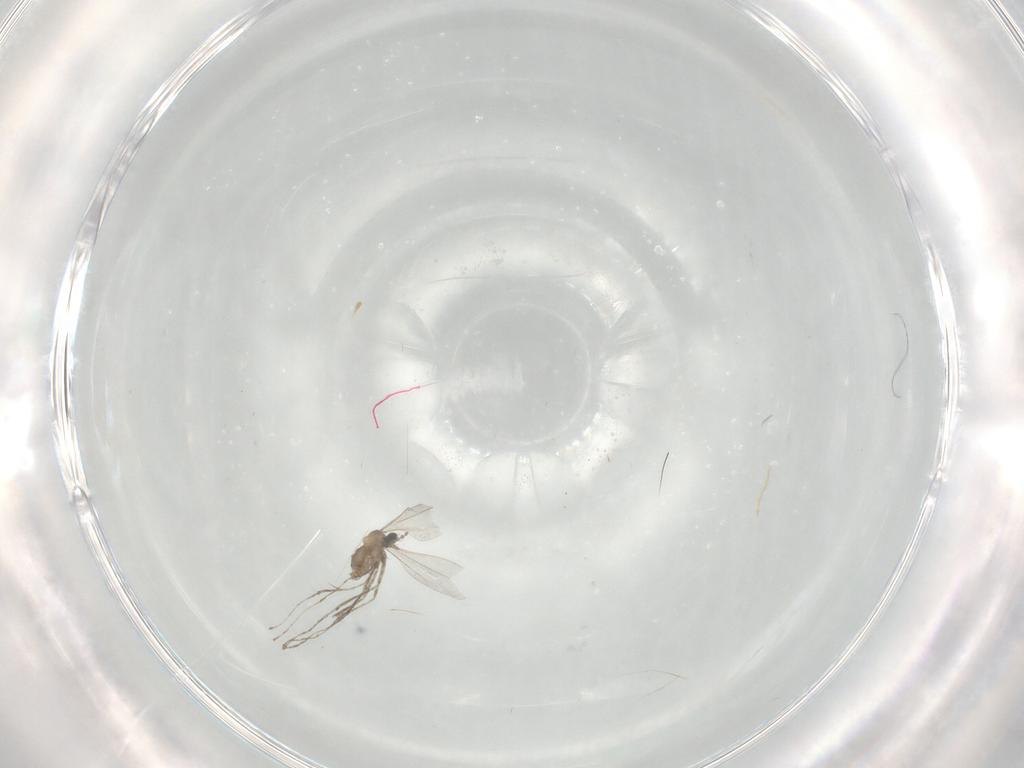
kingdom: Animalia
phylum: Arthropoda
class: Insecta
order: Diptera
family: Cecidomyiidae
